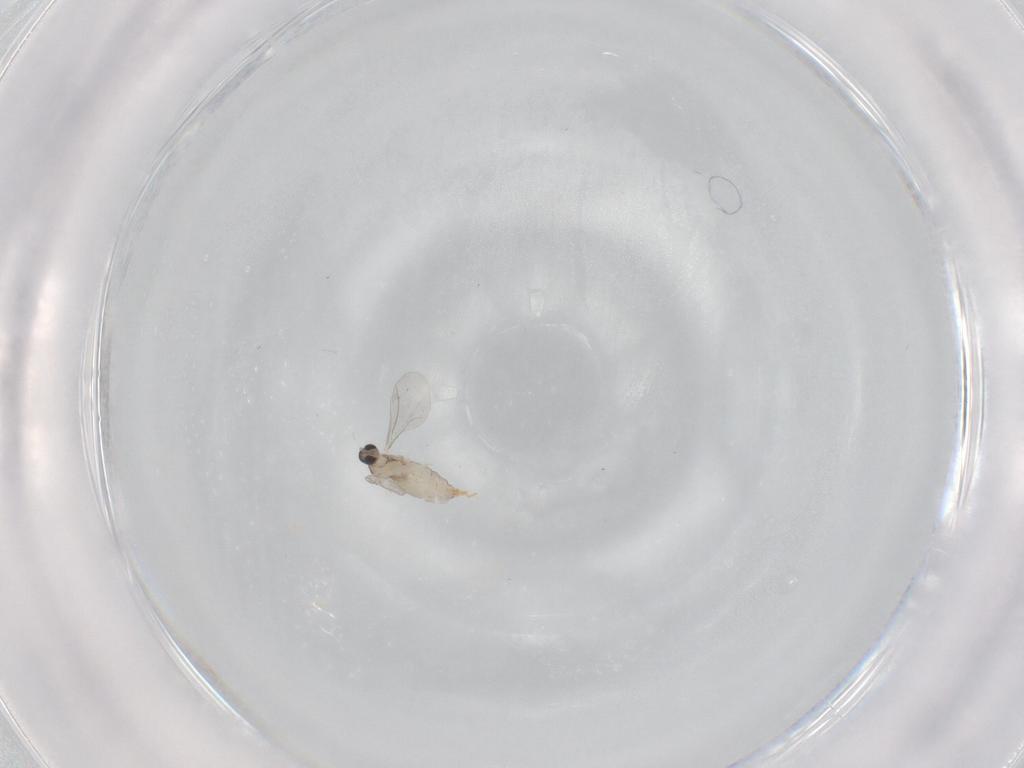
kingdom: Animalia
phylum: Arthropoda
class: Insecta
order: Diptera
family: Cecidomyiidae
